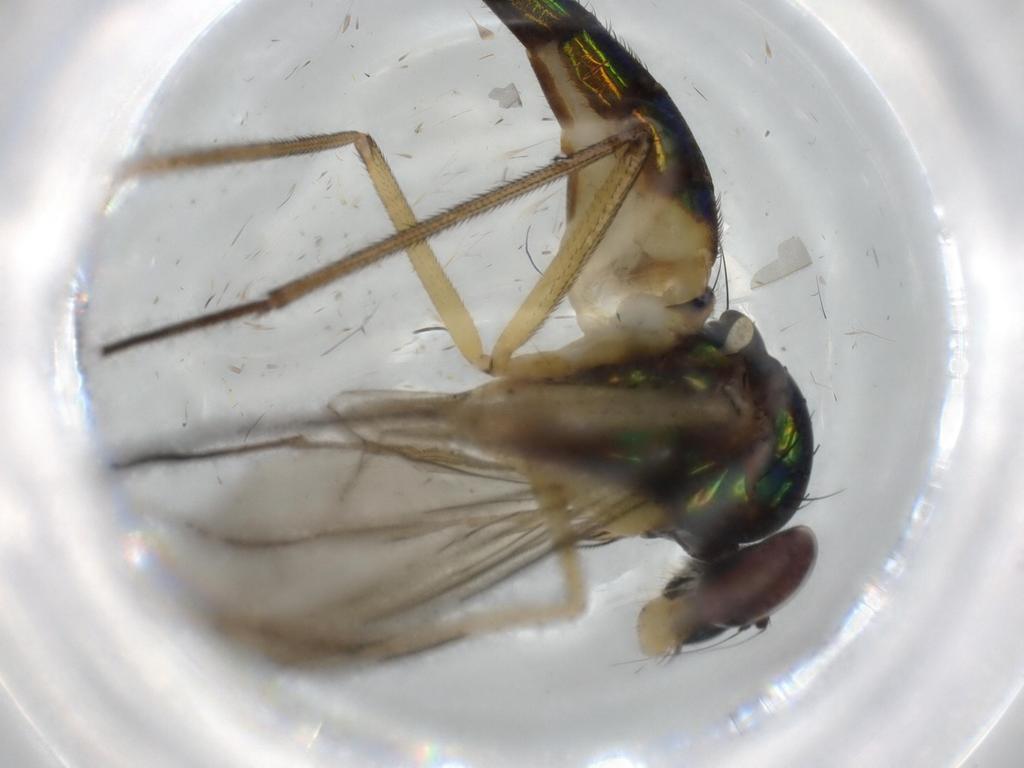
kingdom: Animalia
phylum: Arthropoda
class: Insecta
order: Diptera
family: Dolichopodidae
